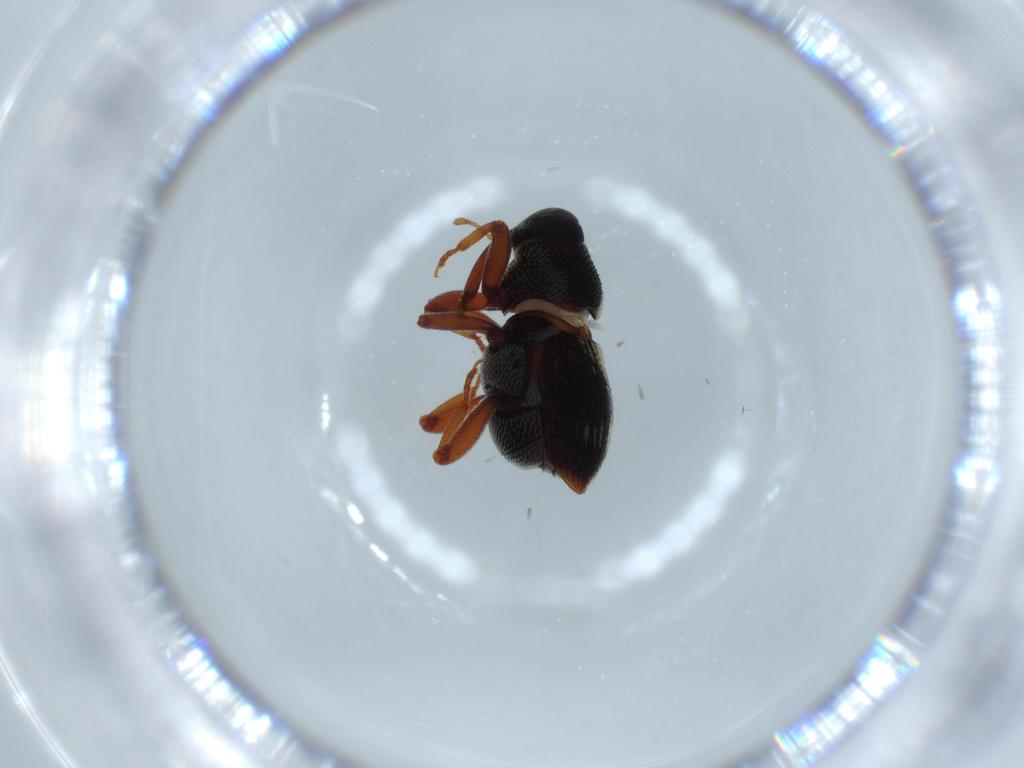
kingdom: Animalia
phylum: Arthropoda
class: Insecta
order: Coleoptera
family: Curculionidae
